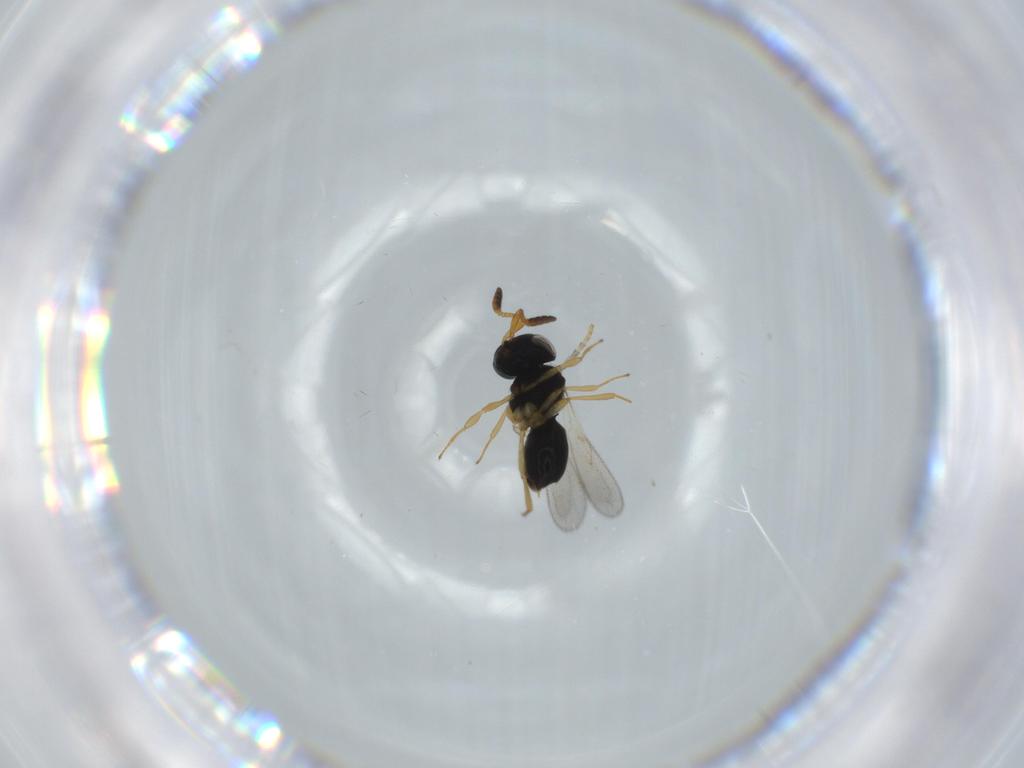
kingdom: Animalia
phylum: Arthropoda
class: Insecta
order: Hymenoptera
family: Scelionidae
